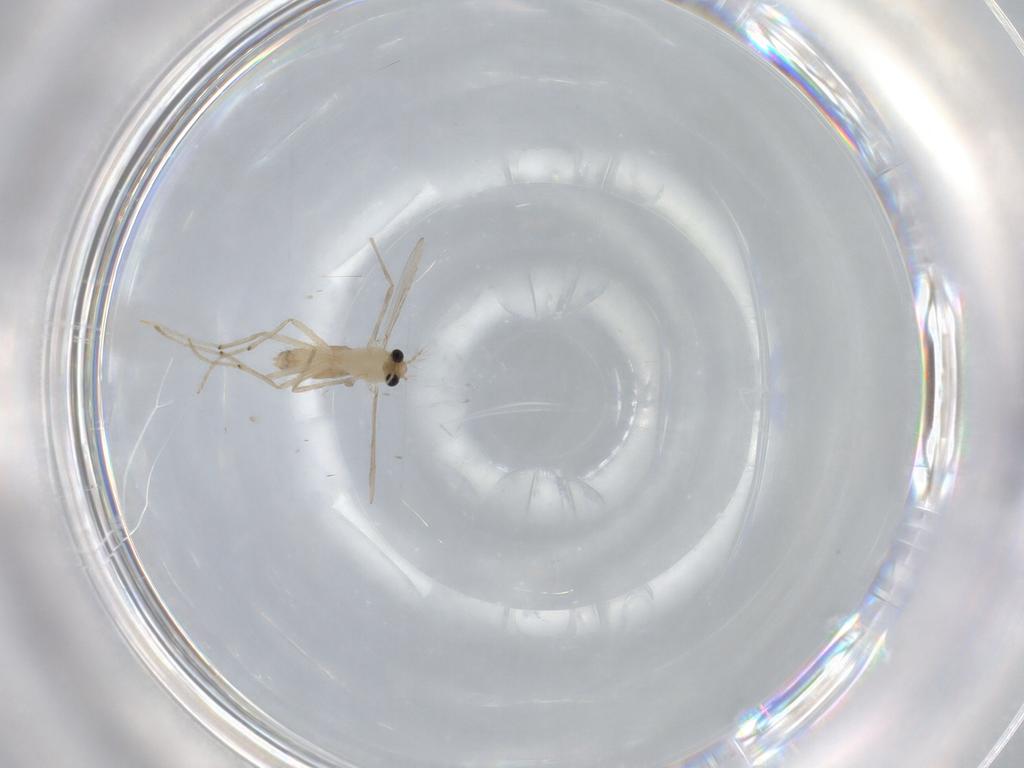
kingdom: Animalia
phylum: Arthropoda
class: Insecta
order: Diptera
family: Chironomidae
